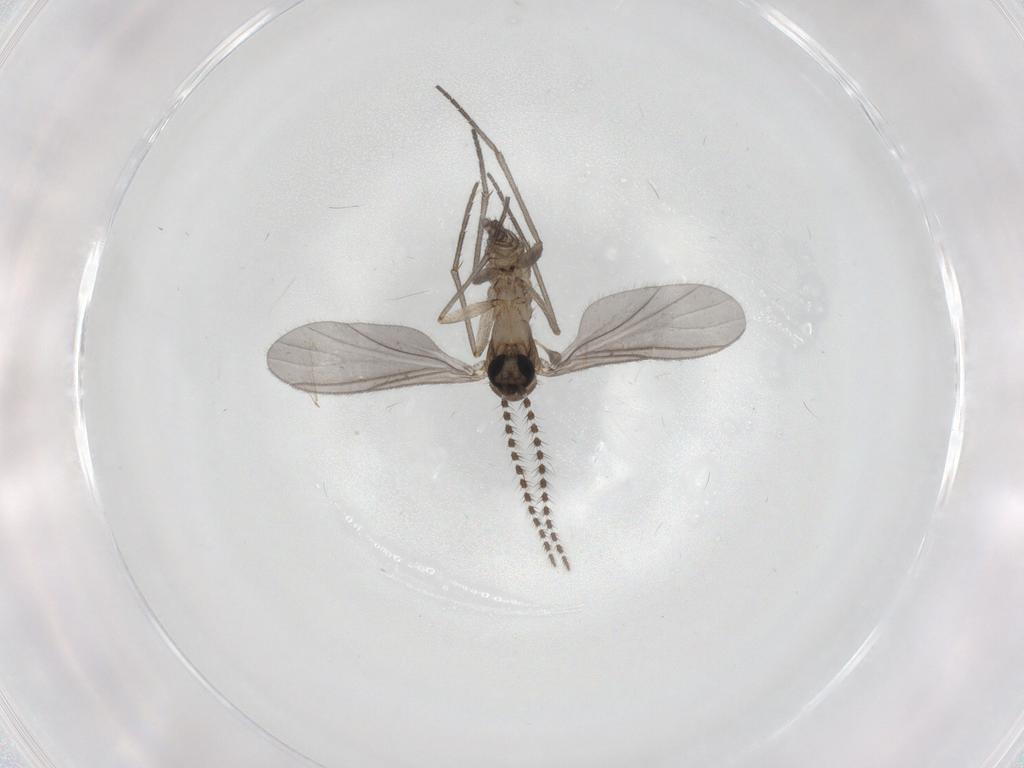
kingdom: Animalia
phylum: Arthropoda
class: Insecta
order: Diptera
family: Sciaridae
